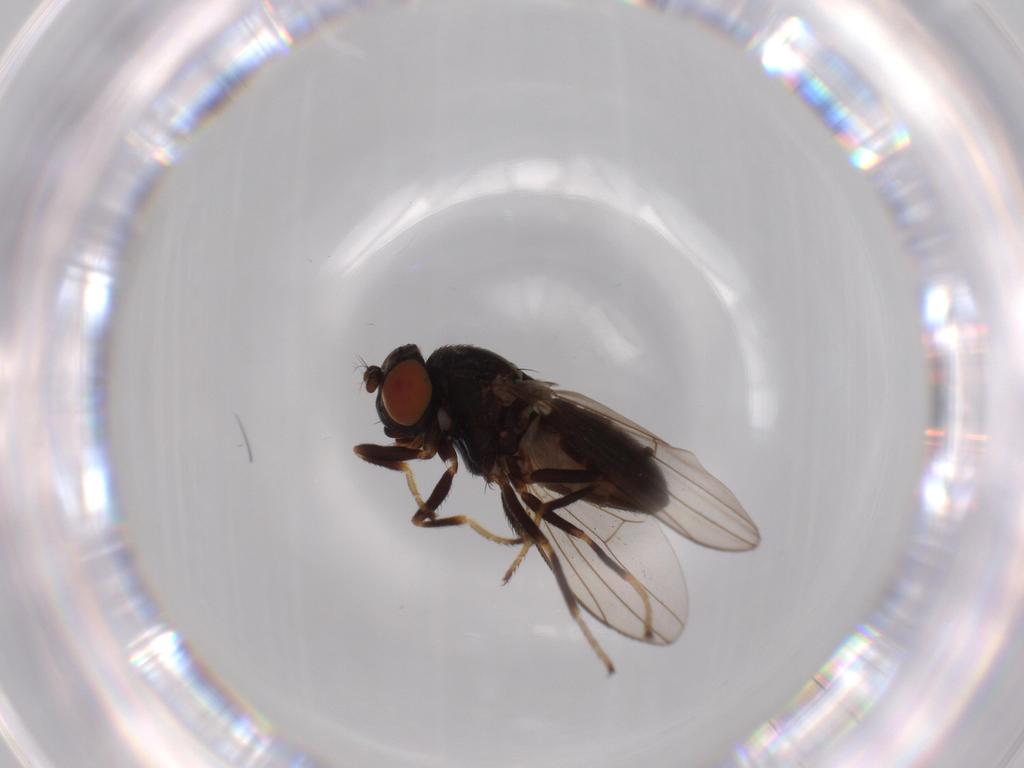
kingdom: Animalia
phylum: Arthropoda
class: Insecta
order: Diptera
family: Ephydridae
